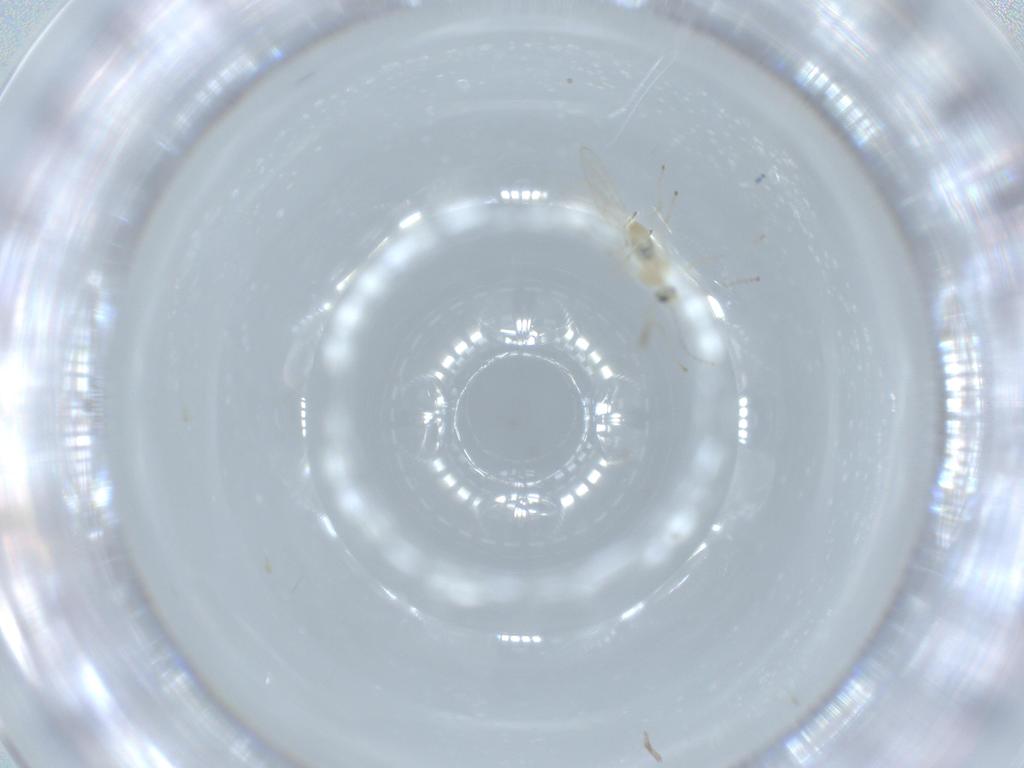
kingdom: Animalia
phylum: Arthropoda
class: Insecta
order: Diptera
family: Cecidomyiidae
